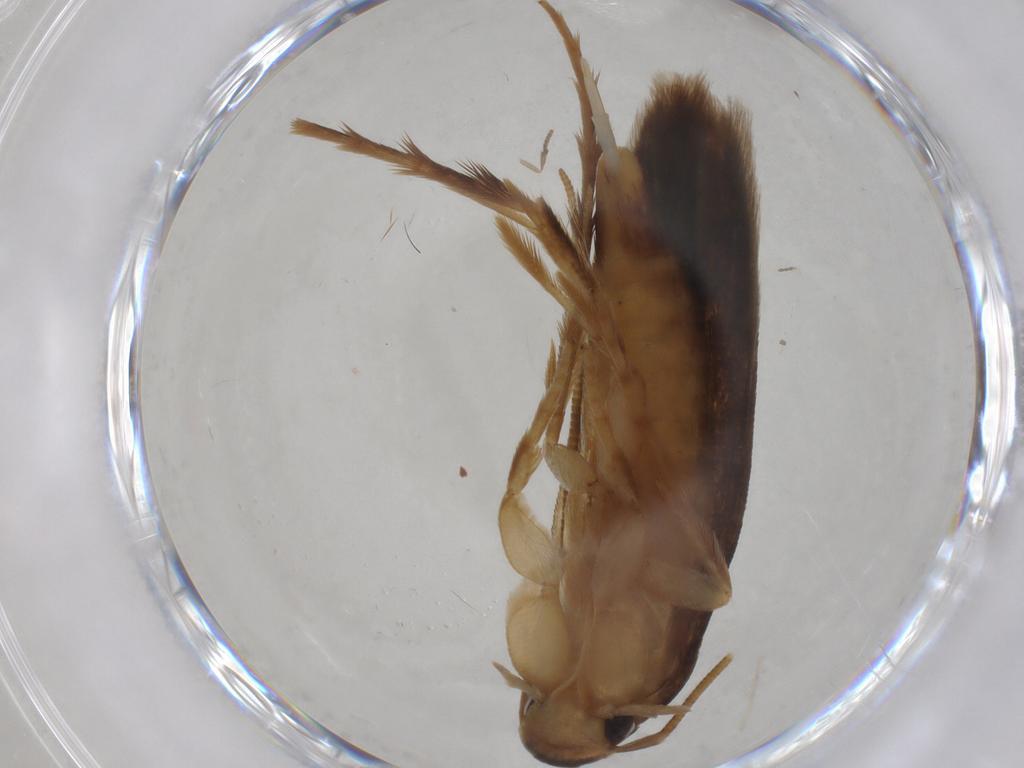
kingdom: Animalia
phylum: Arthropoda
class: Insecta
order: Lepidoptera
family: Tineidae
